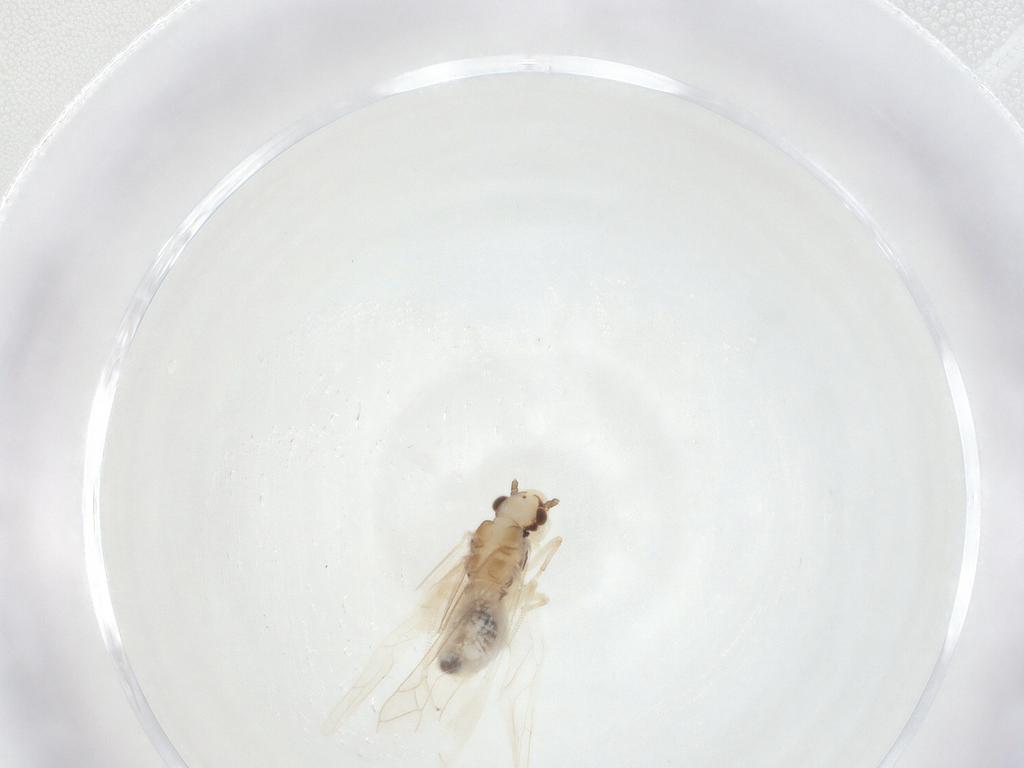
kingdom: Animalia
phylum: Arthropoda
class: Insecta
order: Psocodea
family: Caeciliusidae
